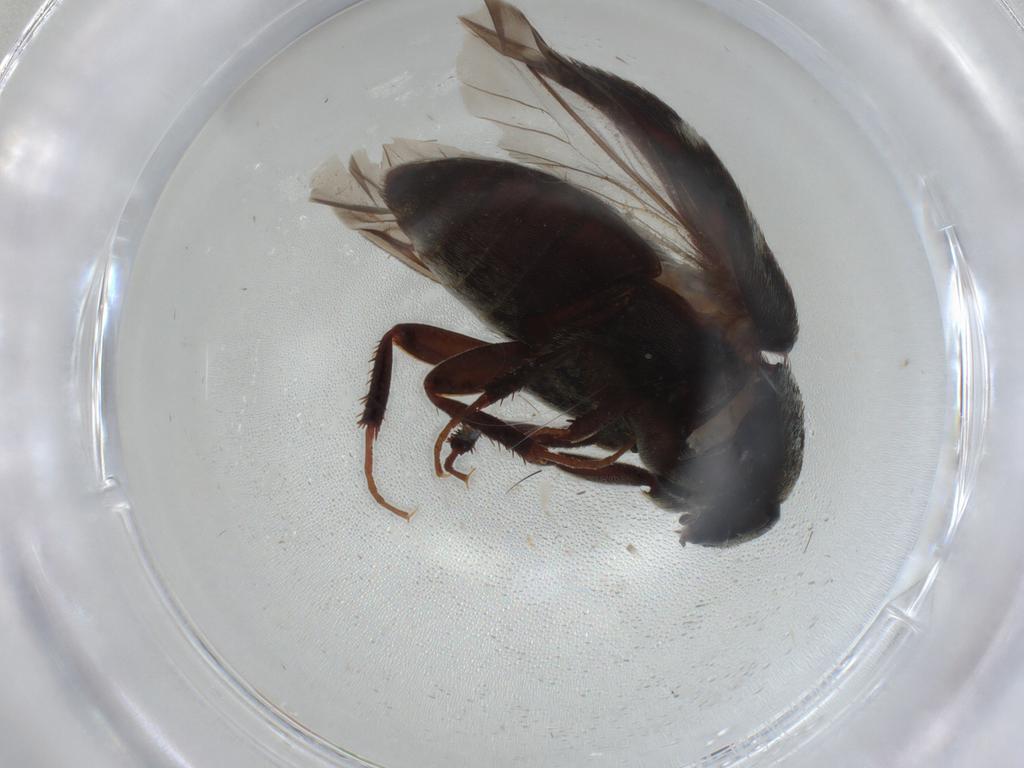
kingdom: Animalia
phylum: Arthropoda
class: Insecta
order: Coleoptera
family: Dermestidae
